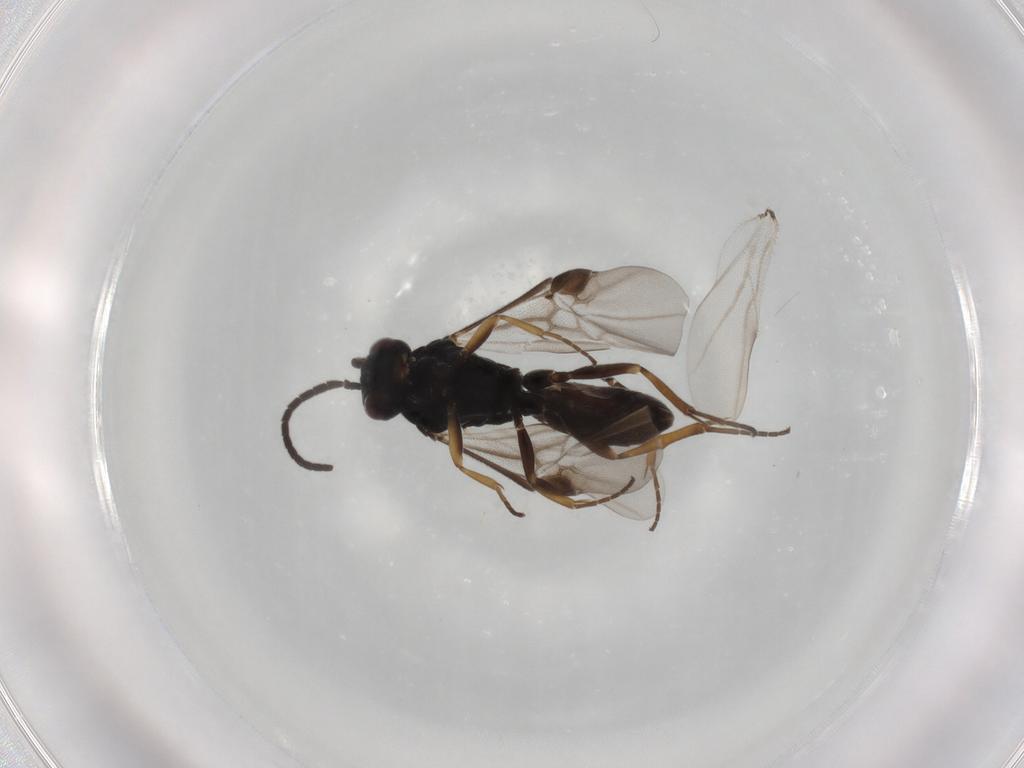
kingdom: Animalia
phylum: Arthropoda
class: Insecta
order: Hymenoptera
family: Braconidae
